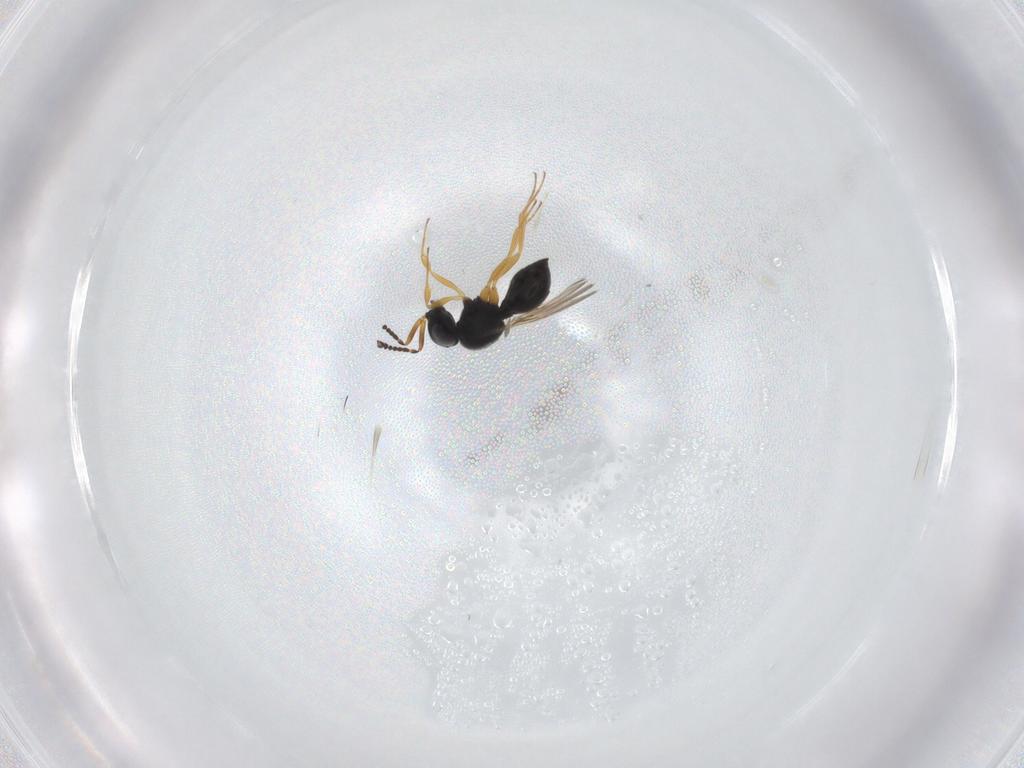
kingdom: Animalia
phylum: Arthropoda
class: Insecta
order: Hymenoptera
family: Scelionidae
